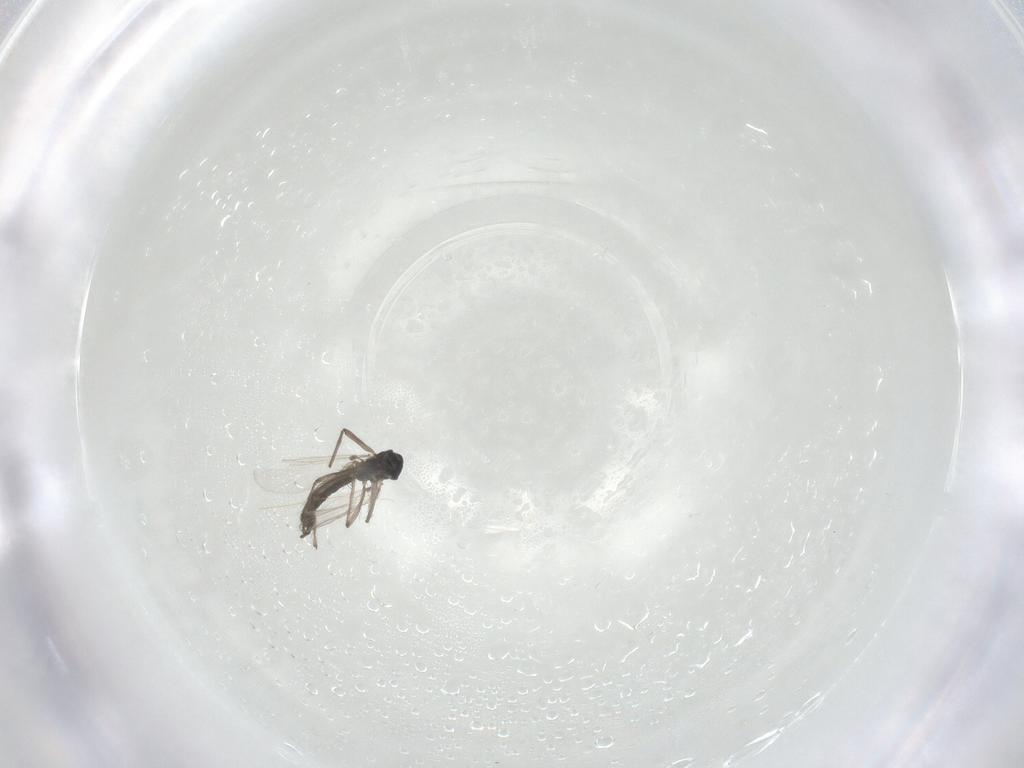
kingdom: Animalia
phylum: Arthropoda
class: Insecta
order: Diptera
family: Chironomidae
